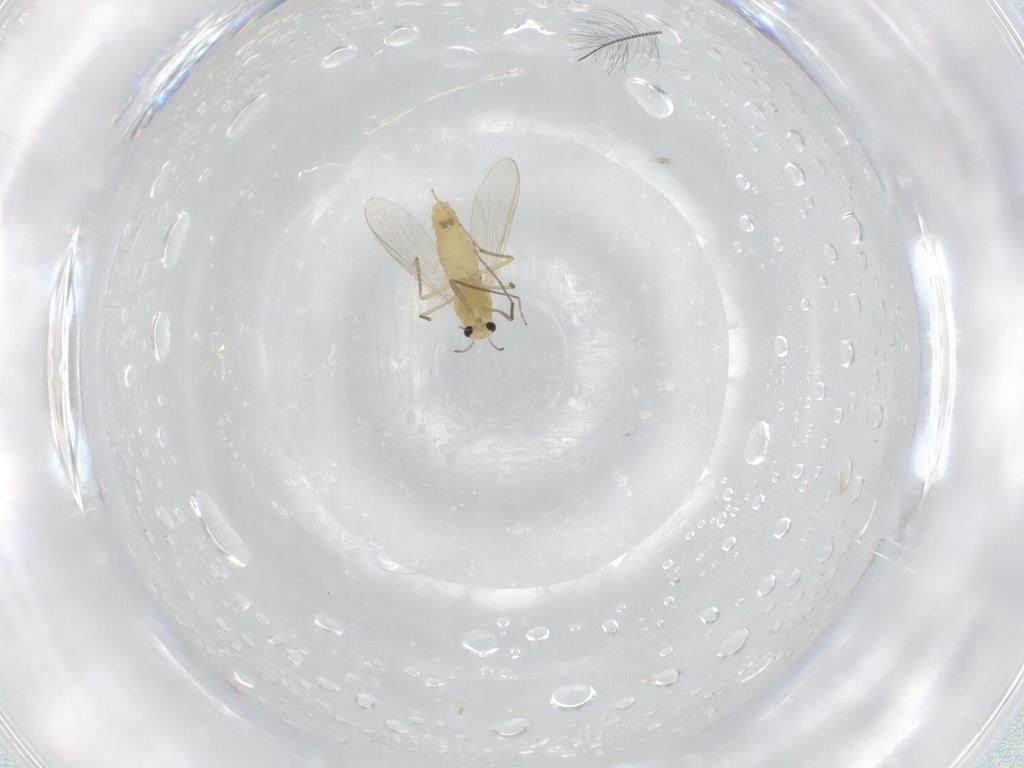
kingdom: Animalia
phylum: Arthropoda
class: Insecta
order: Diptera
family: Chironomidae
